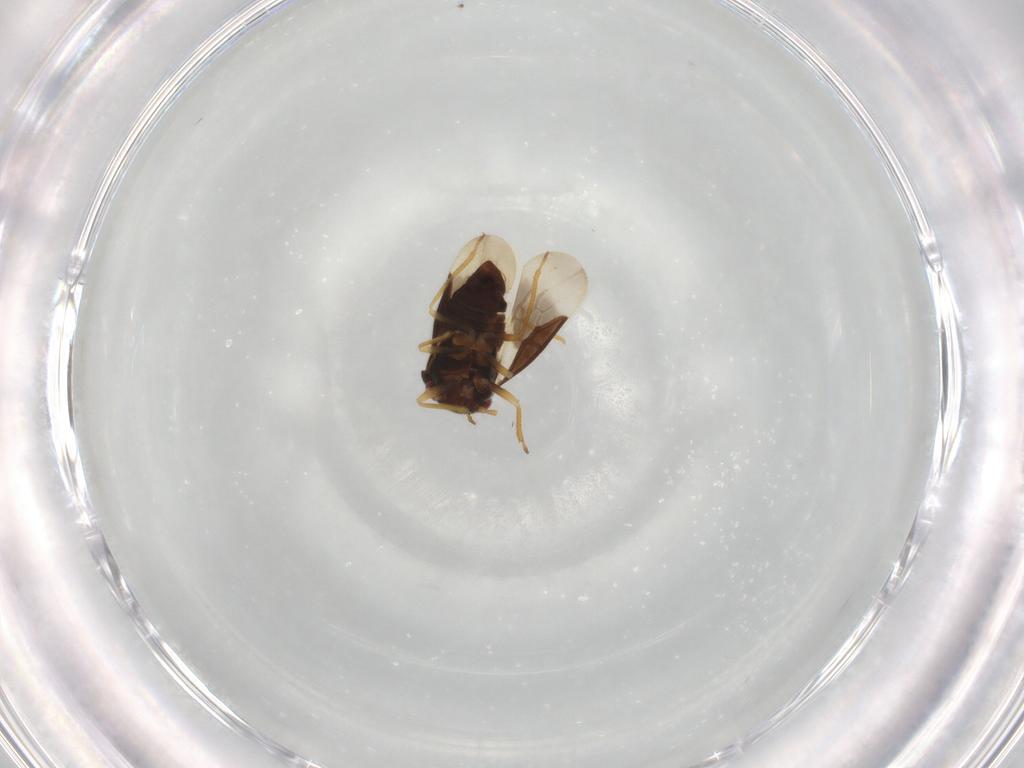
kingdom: Animalia
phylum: Arthropoda
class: Insecta
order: Hemiptera
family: Schizopteridae
